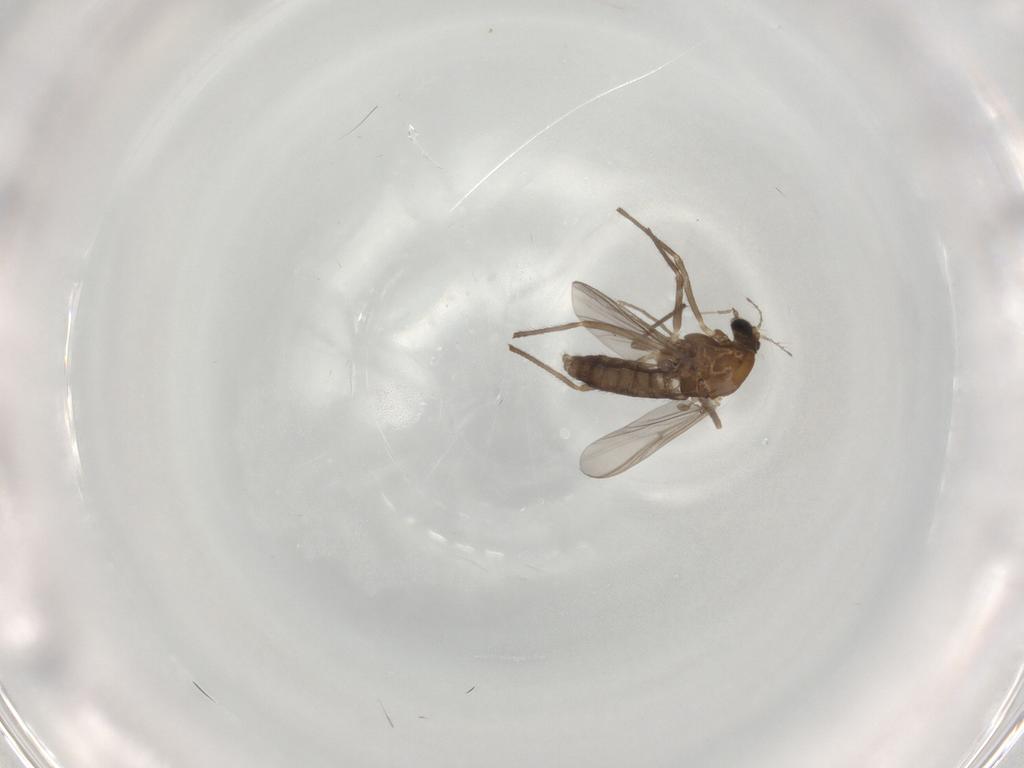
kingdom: Animalia
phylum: Arthropoda
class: Insecta
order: Diptera
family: Chironomidae
